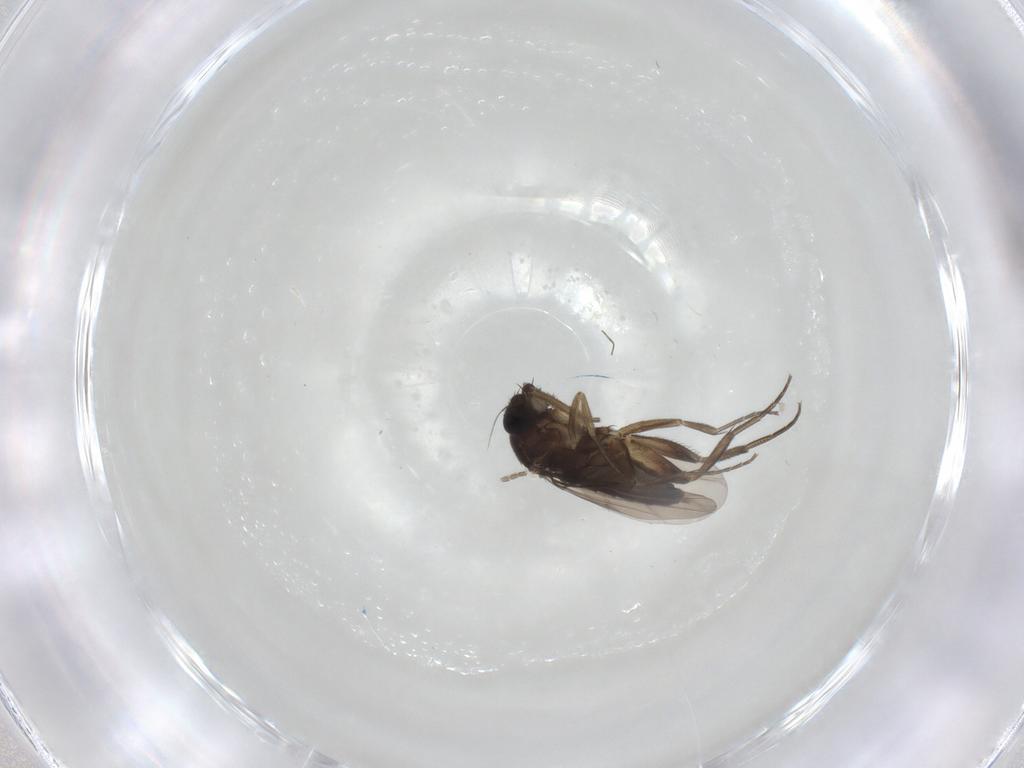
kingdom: Animalia
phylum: Arthropoda
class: Insecta
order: Diptera
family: Phoridae
